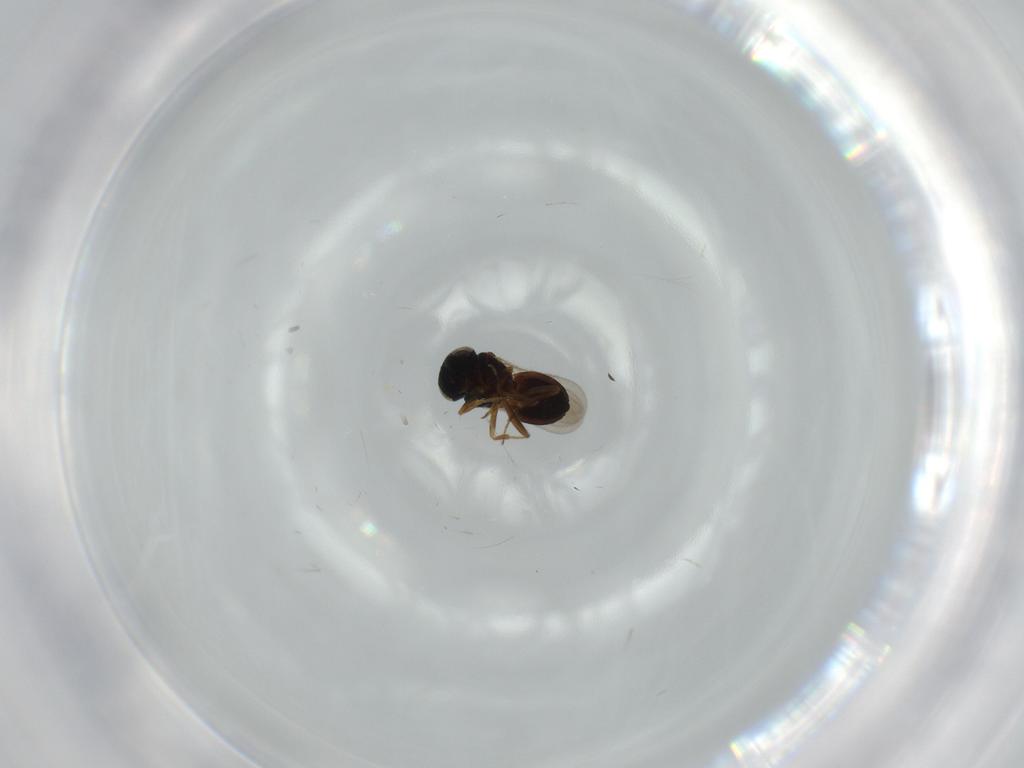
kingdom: Animalia
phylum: Arthropoda
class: Insecta
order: Hymenoptera
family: Scelionidae
